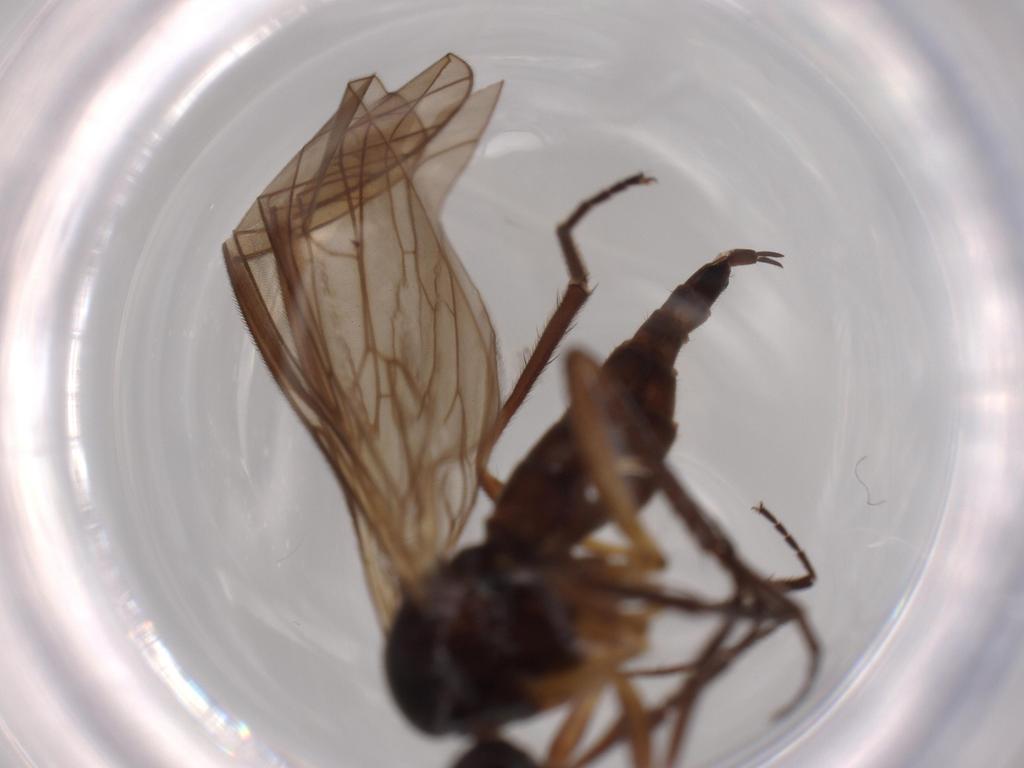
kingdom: Animalia
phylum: Arthropoda
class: Insecta
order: Diptera
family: Empididae
